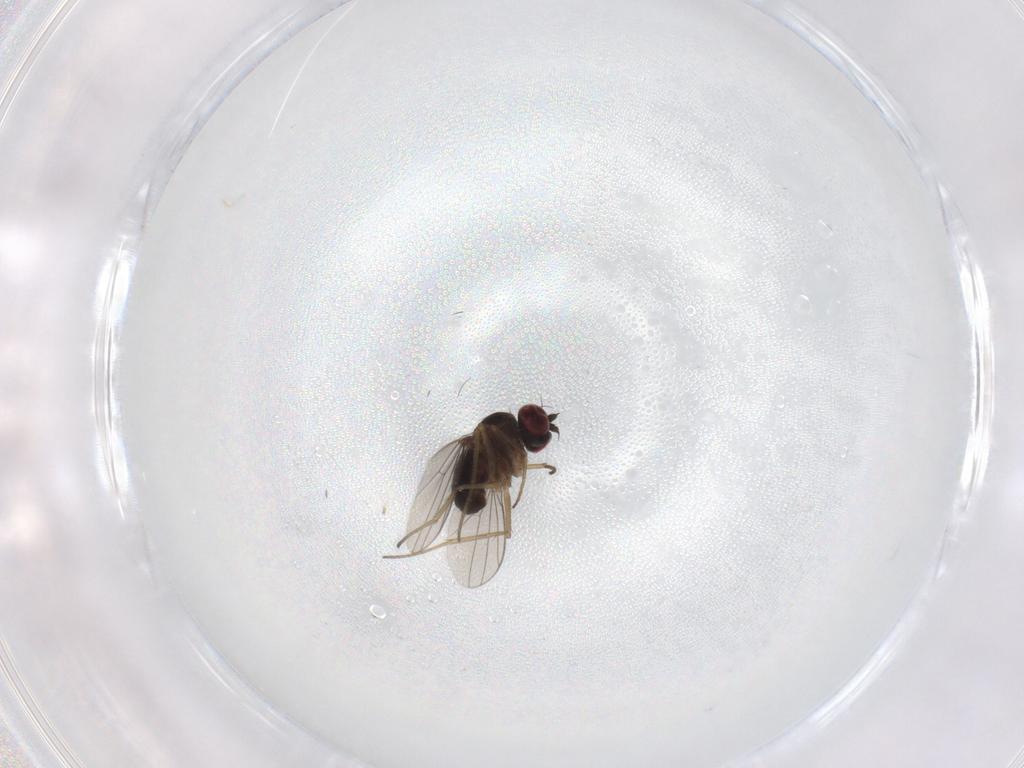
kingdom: Animalia
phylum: Arthropoda
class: Insecta
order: Diptera
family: Dolichopodidae
